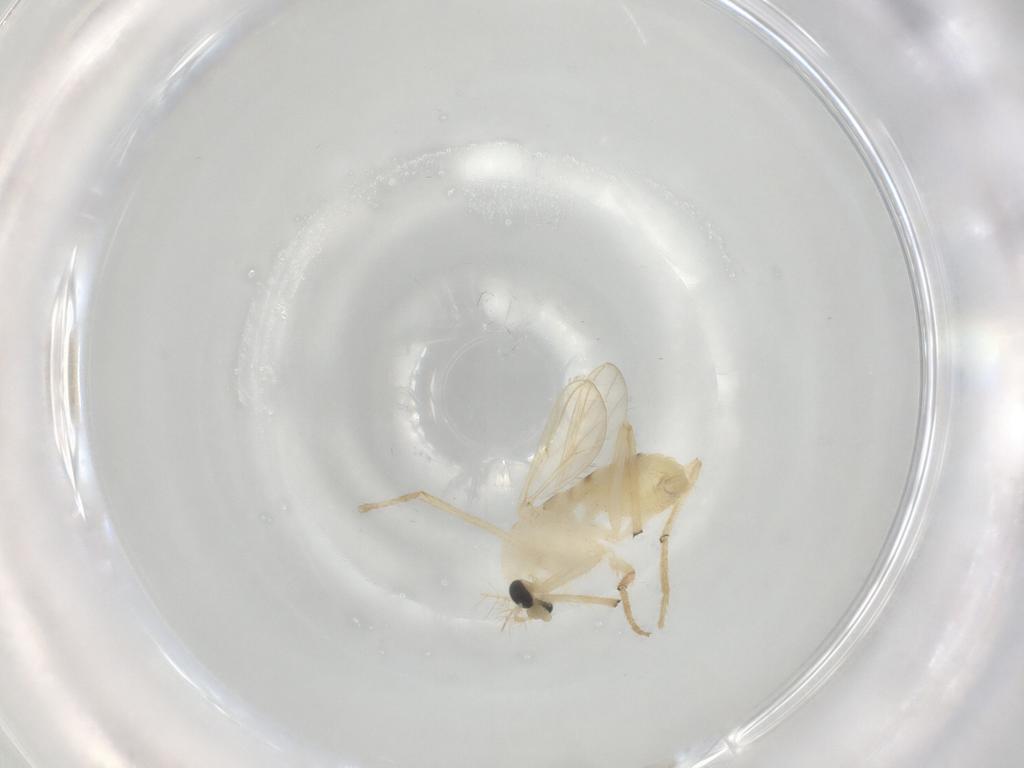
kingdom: Animalia
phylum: Arthropoda
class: Insecta
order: Diptera
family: Chironomidae
